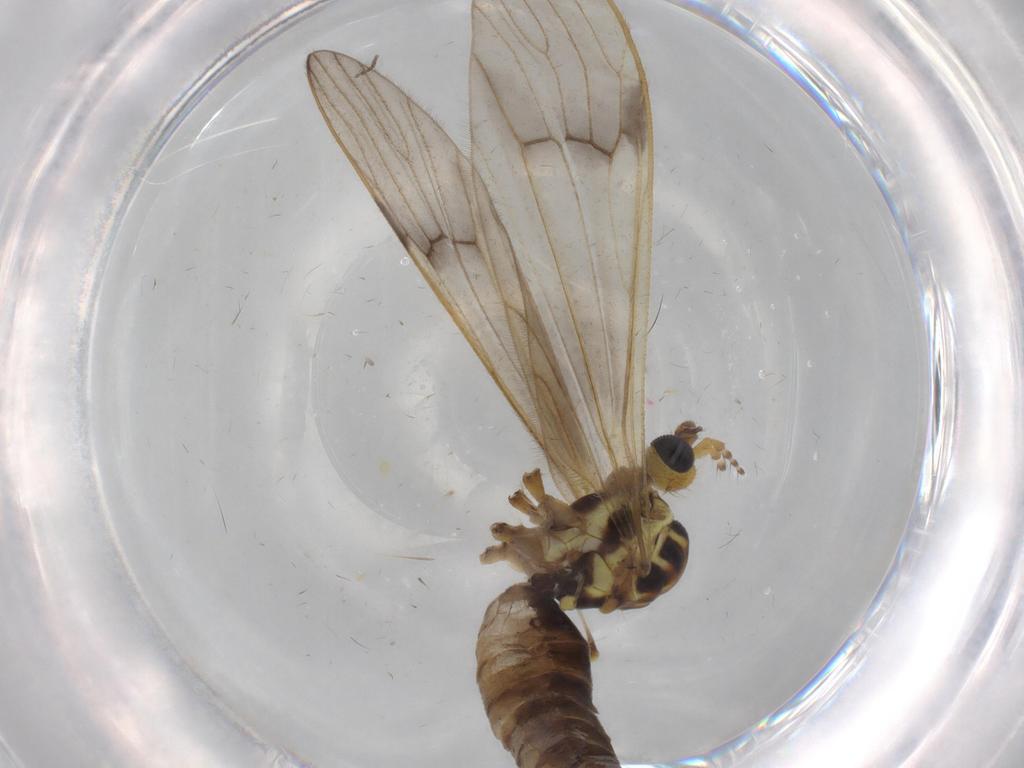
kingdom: Animalia
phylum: Arthropoda
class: Insecta
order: Diptera
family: Limoniidae
